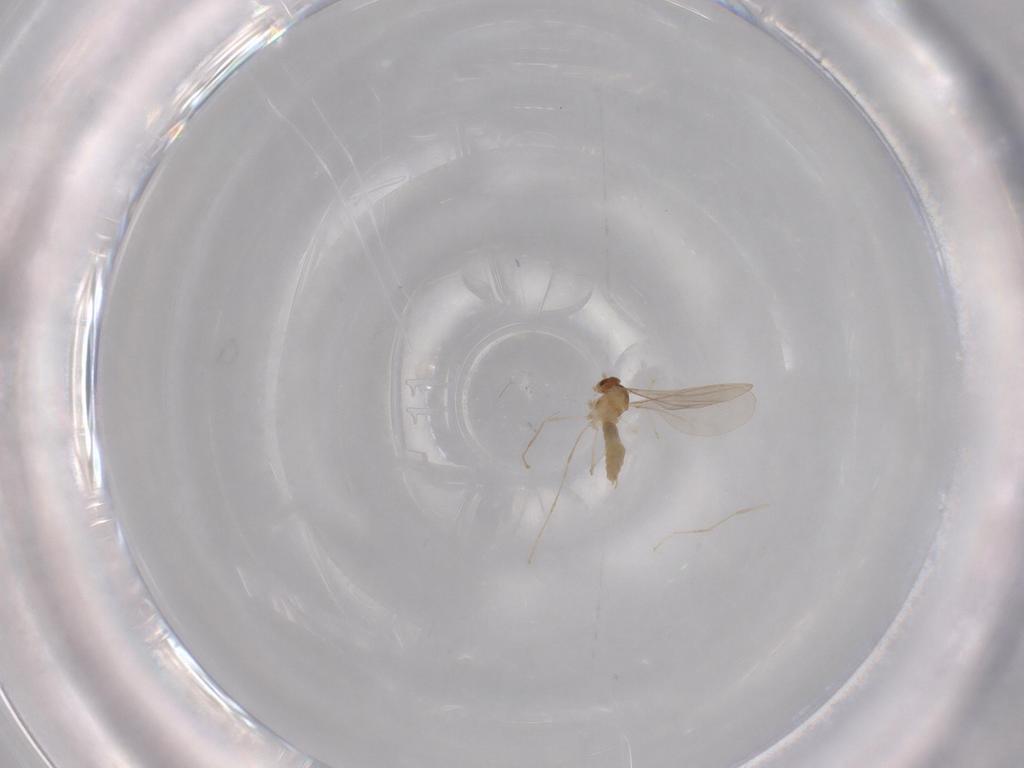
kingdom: Animalia
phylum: Arthropoda
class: Insecta
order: Diptera
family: Cecidomyiidae
